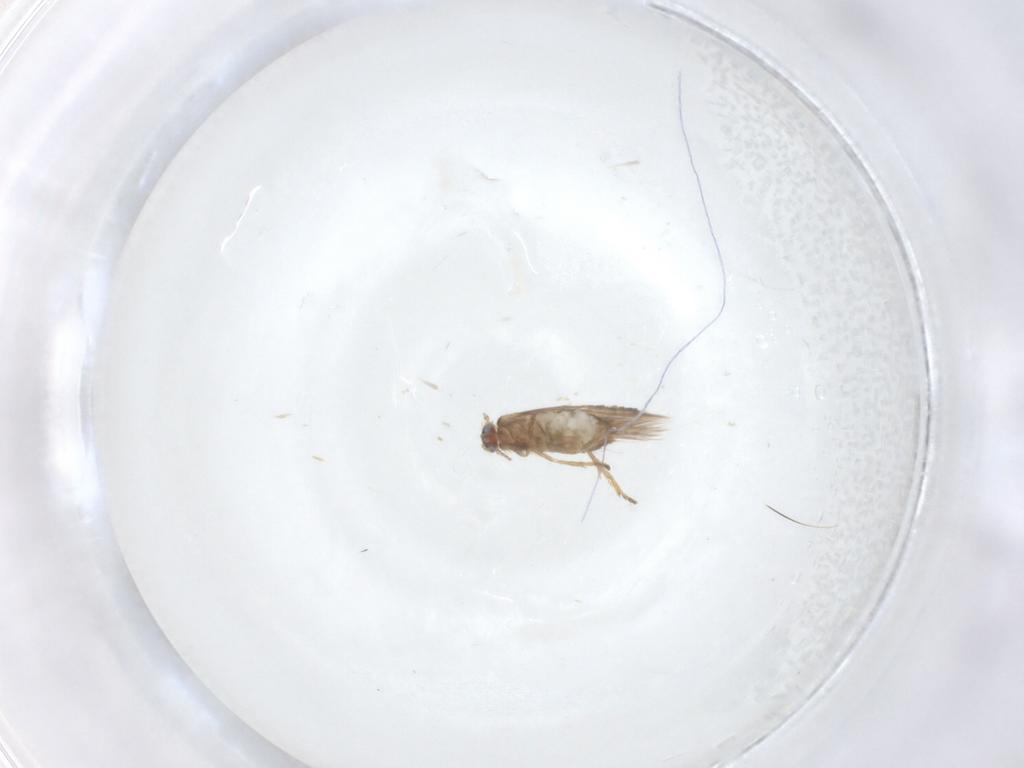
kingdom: Animalia
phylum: Arthropoda
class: Insecta
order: Lepidoptera
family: Nepticulidae
